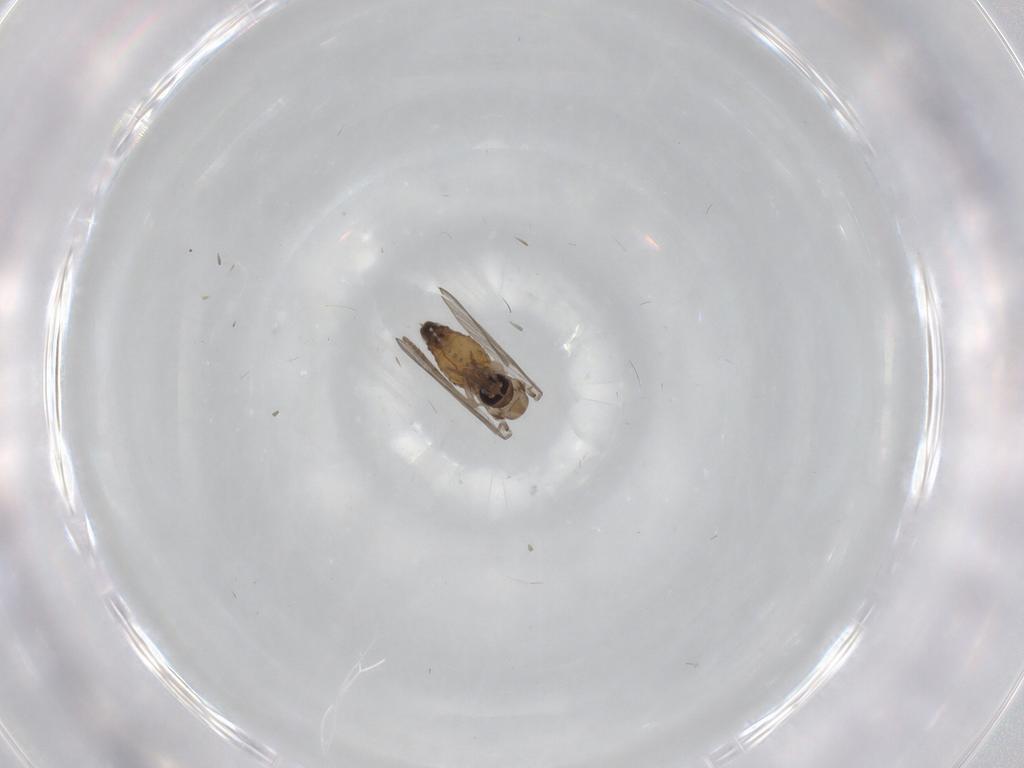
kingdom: Animalia
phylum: Arthropoda
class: Insecta
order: Diptera
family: Psychodidae
